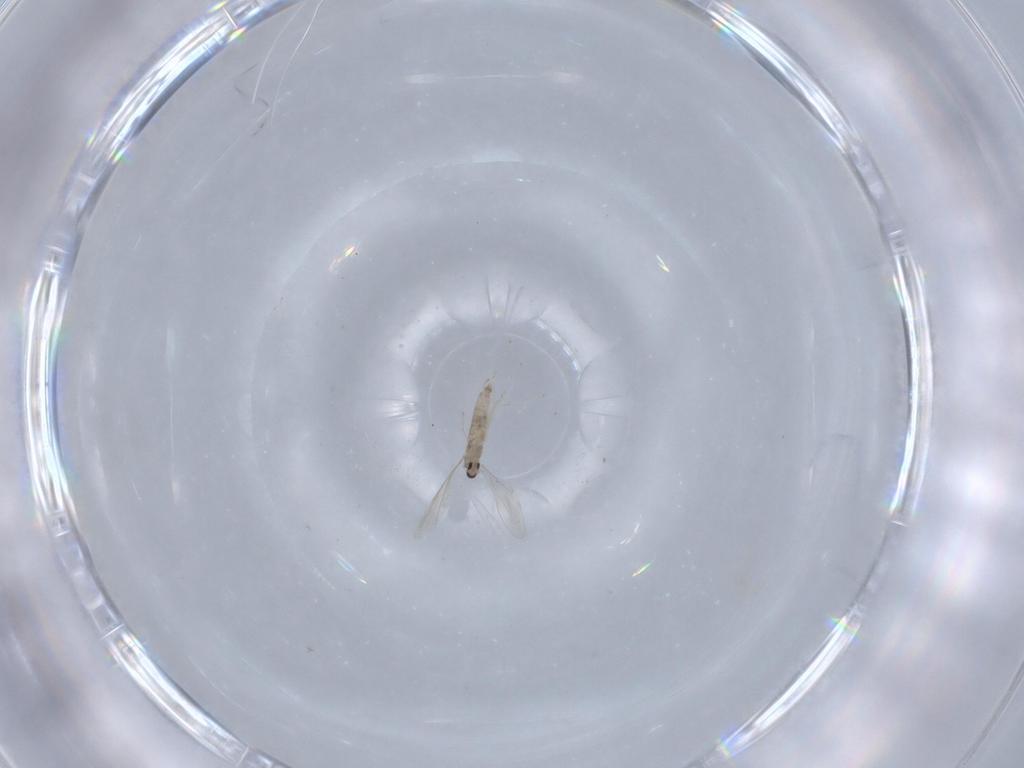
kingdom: Animalia
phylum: Arthropoda
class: Insecta
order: Diptera
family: Cecidomyiidae
